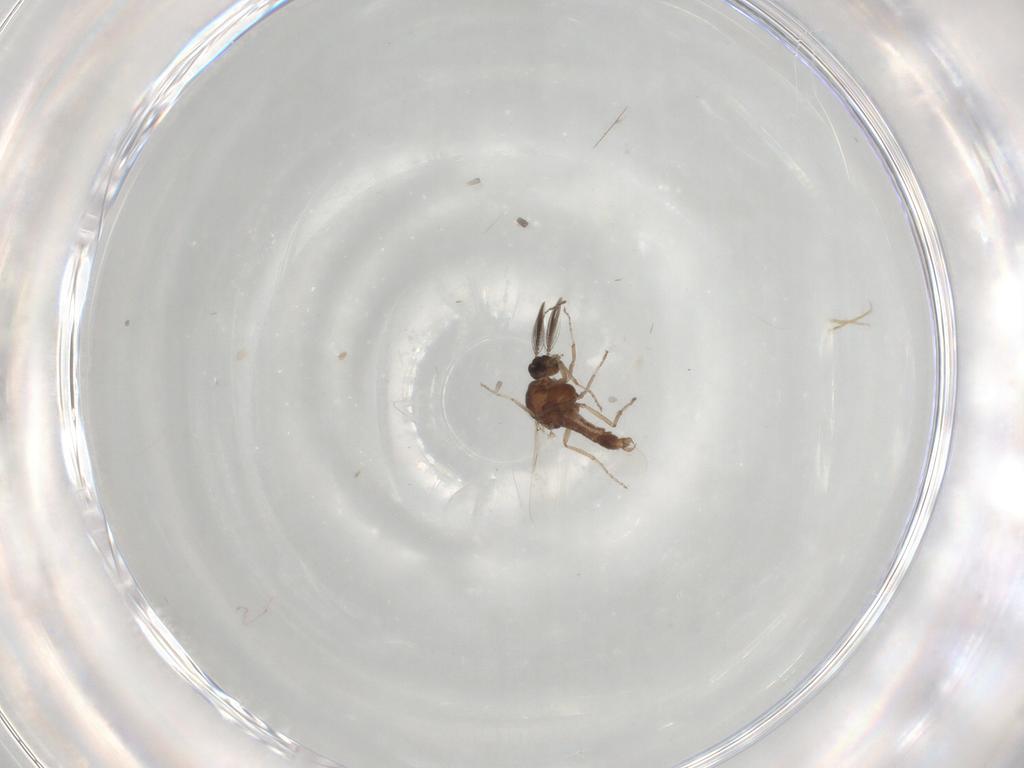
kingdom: Animalia
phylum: Arthropoda
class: Insecta
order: Diptera
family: Ceratopogonidae
